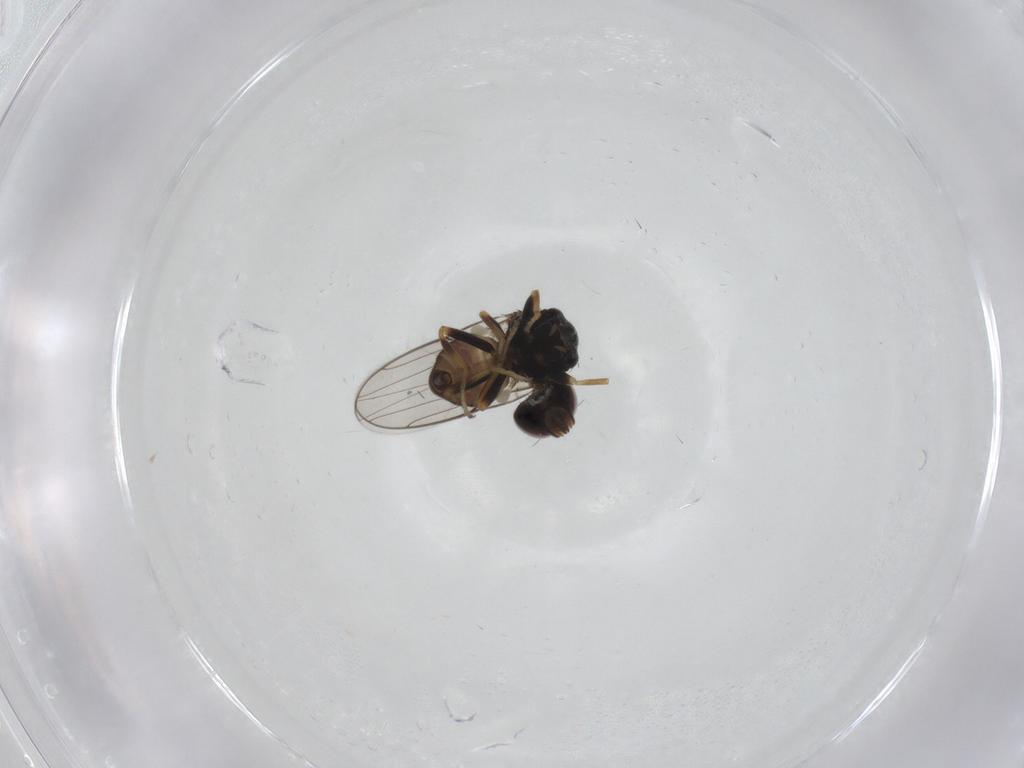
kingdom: Animalia
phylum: Arthropoda
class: Insecta
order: Diptera
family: Chloropidae
